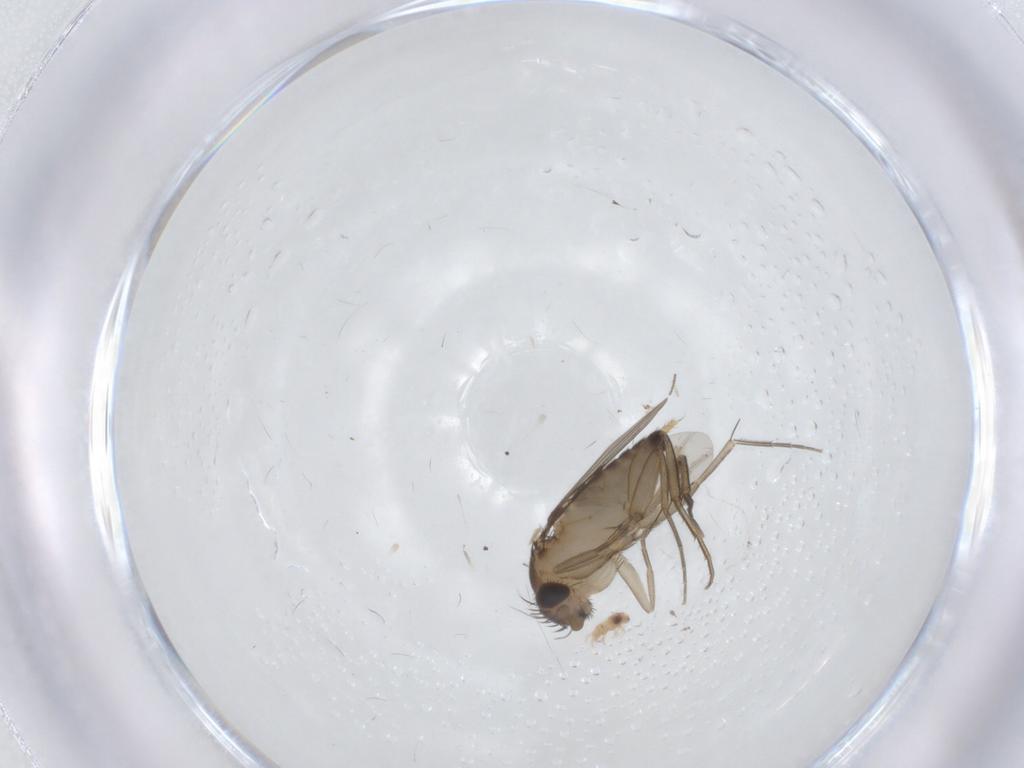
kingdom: Animalia
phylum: Arthropoda
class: Insecta
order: Diptera
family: Phoridae
